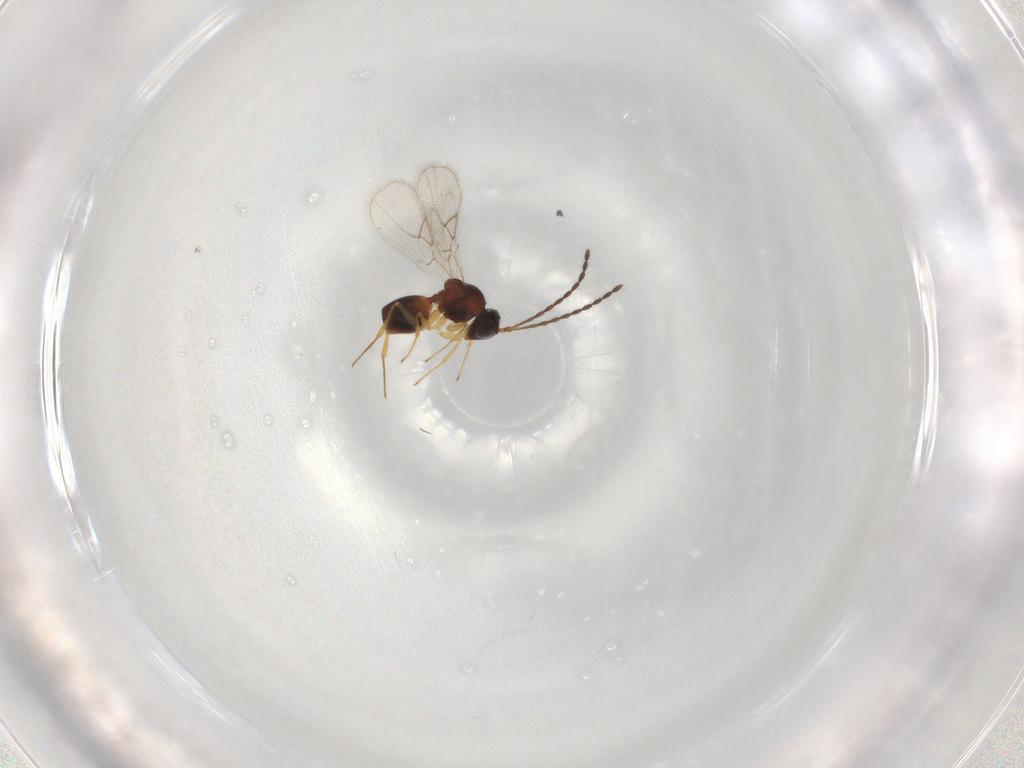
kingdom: Animalia
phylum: Arthropoda
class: Insecta
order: Hymenoptera
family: Figitidae
